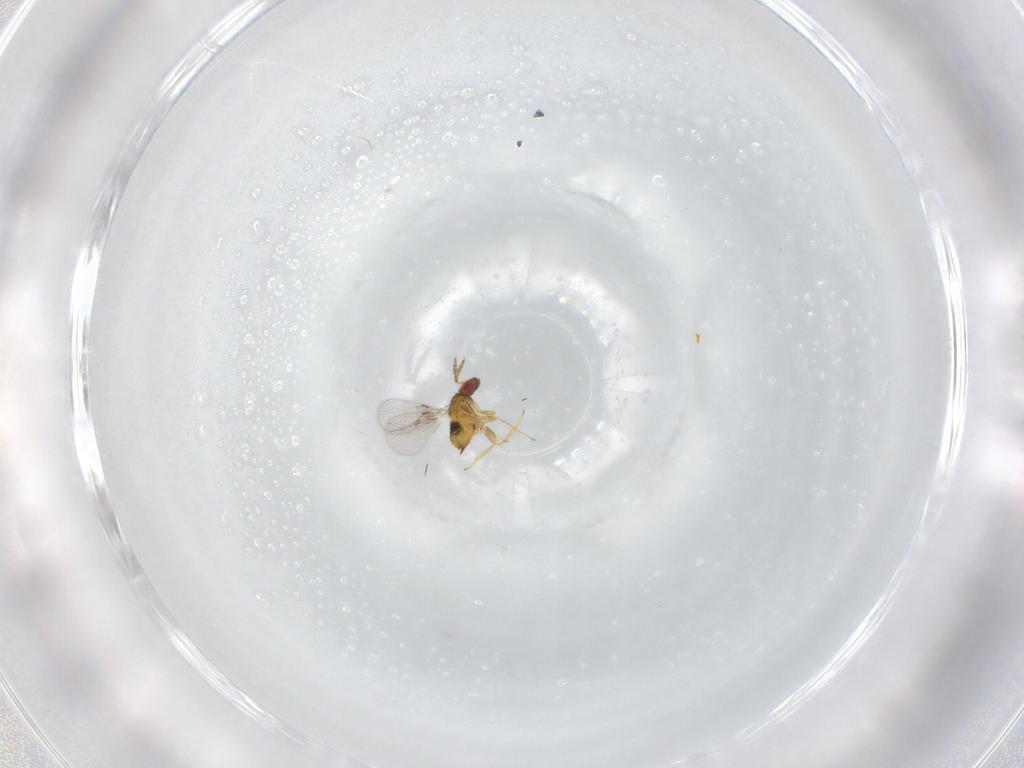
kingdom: Animalia
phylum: Arthropoda
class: Insecta
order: Hymenoptera
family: Trichogrammatidae
